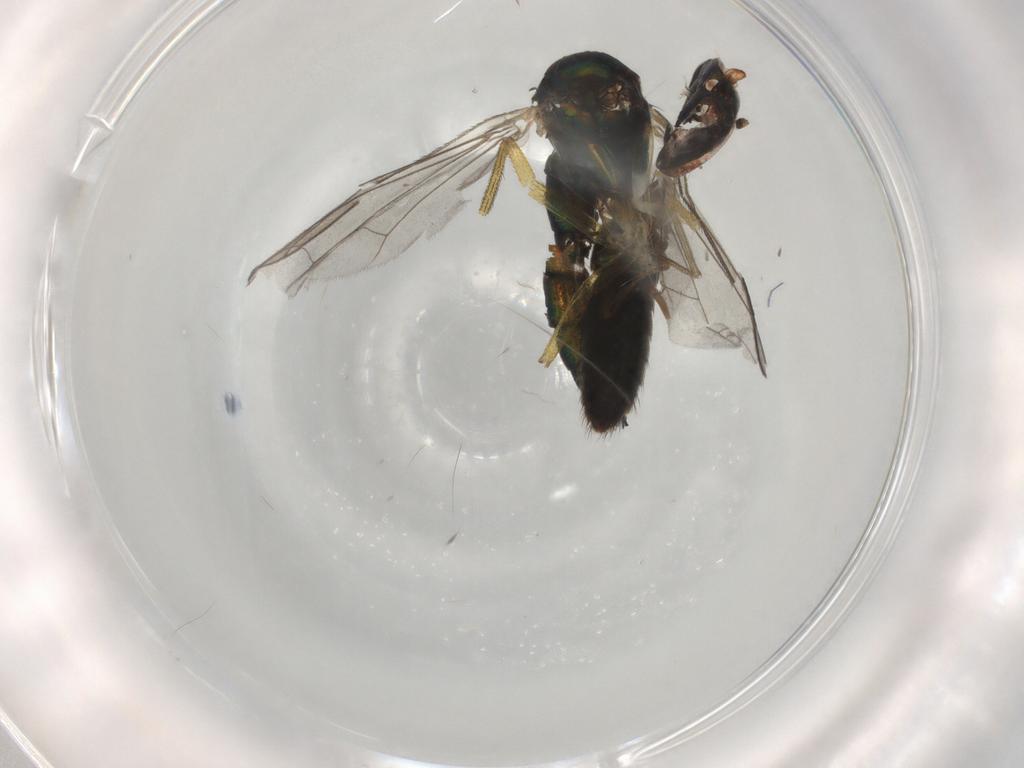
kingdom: Animalia
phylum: Arthropoda
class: Insecta
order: Diptera
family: Dolichopodidae
